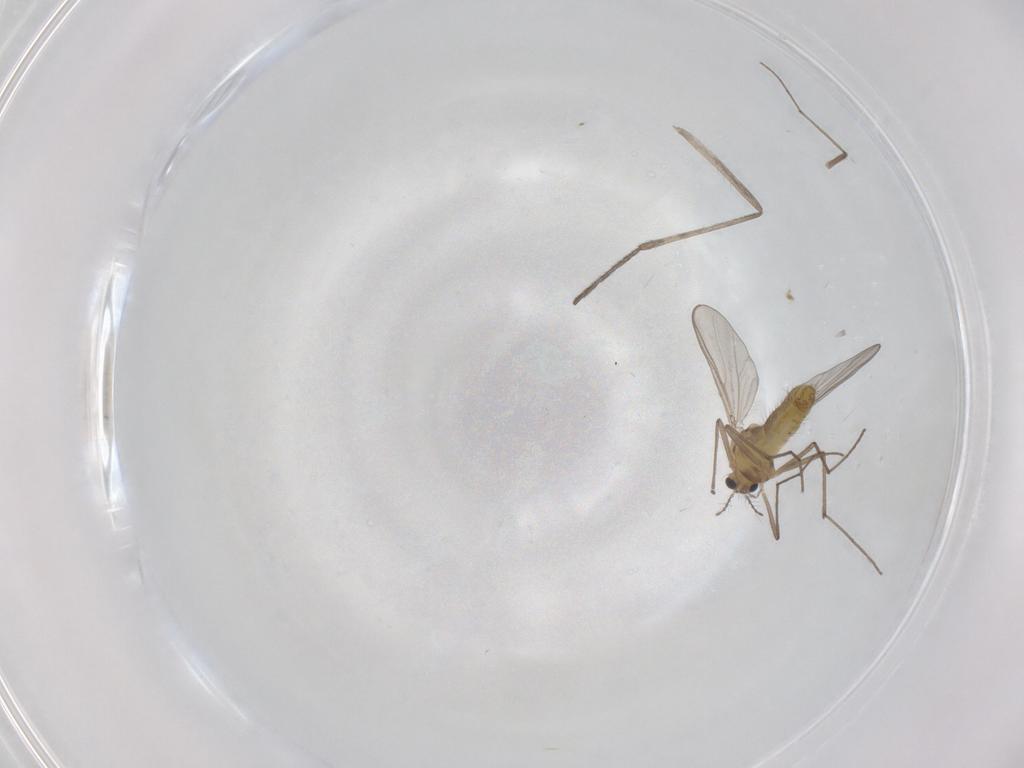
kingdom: Animalia
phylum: Arthropoda
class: Insecta
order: Diptera
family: Chironomidae
